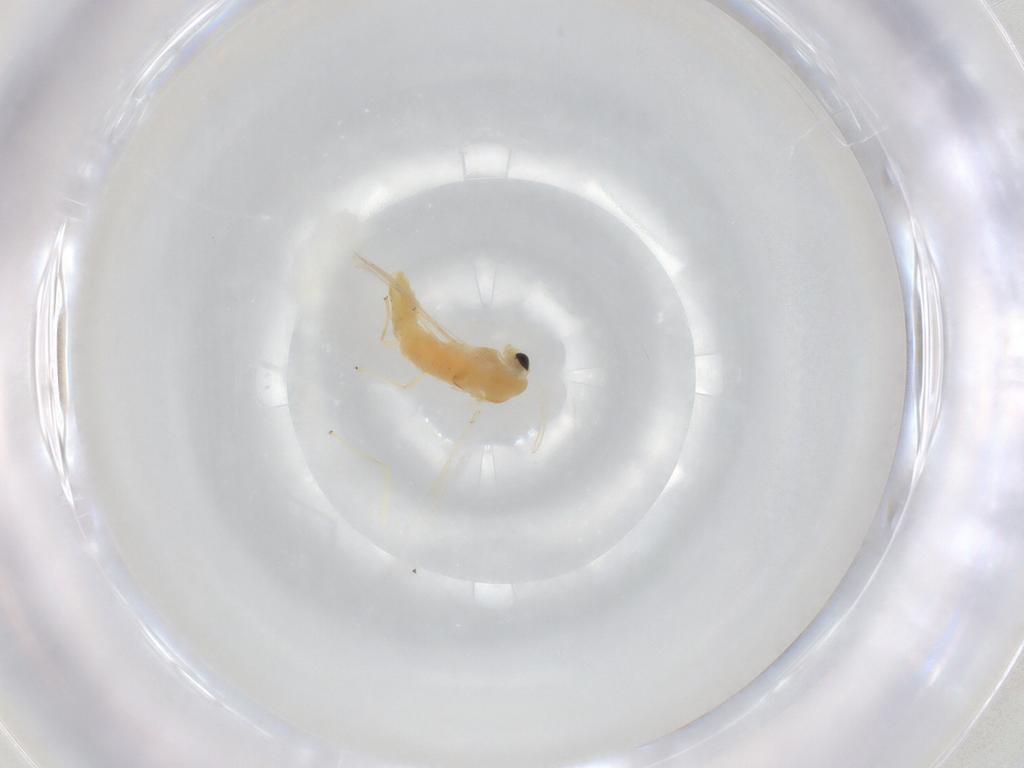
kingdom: Animalia
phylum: Arthropoda
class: Insecta
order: Diptera
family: Chironomidae
